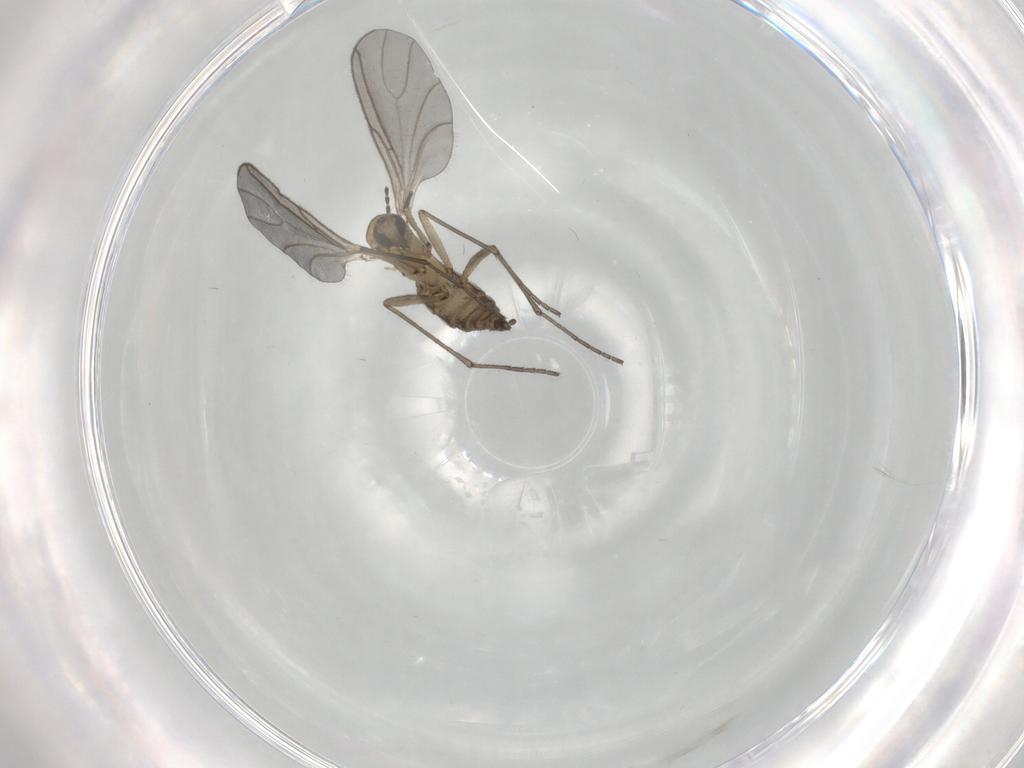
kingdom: Animalia
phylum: Arthropoda
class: Insecta
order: Diptera
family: Sciaridae
